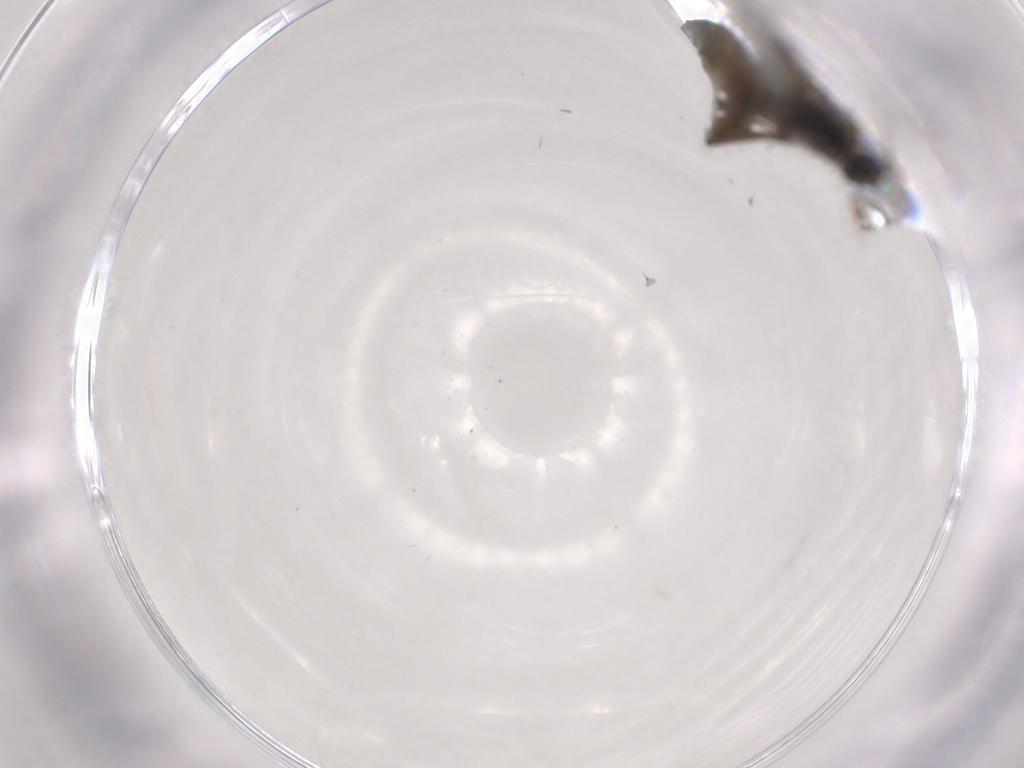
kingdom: Animalia
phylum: Arthropoda
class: Insecta
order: Diptera
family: Sciaridae
